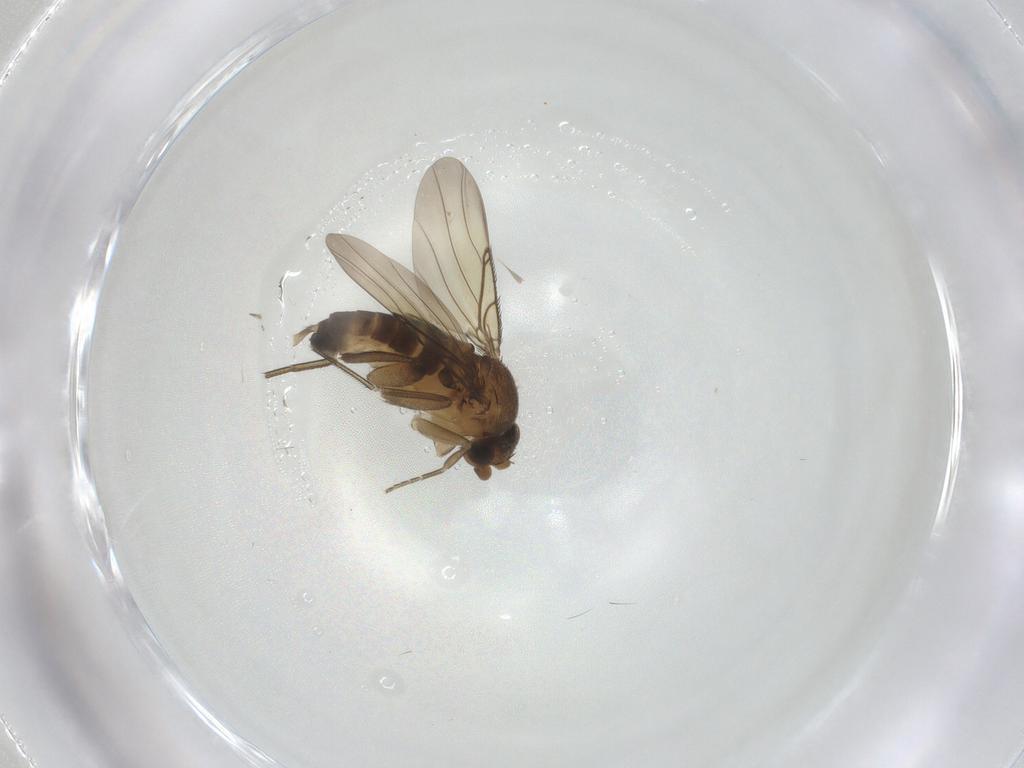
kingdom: Animalia
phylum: Arthropoda
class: Insecta
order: Diptera
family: Phoridae
